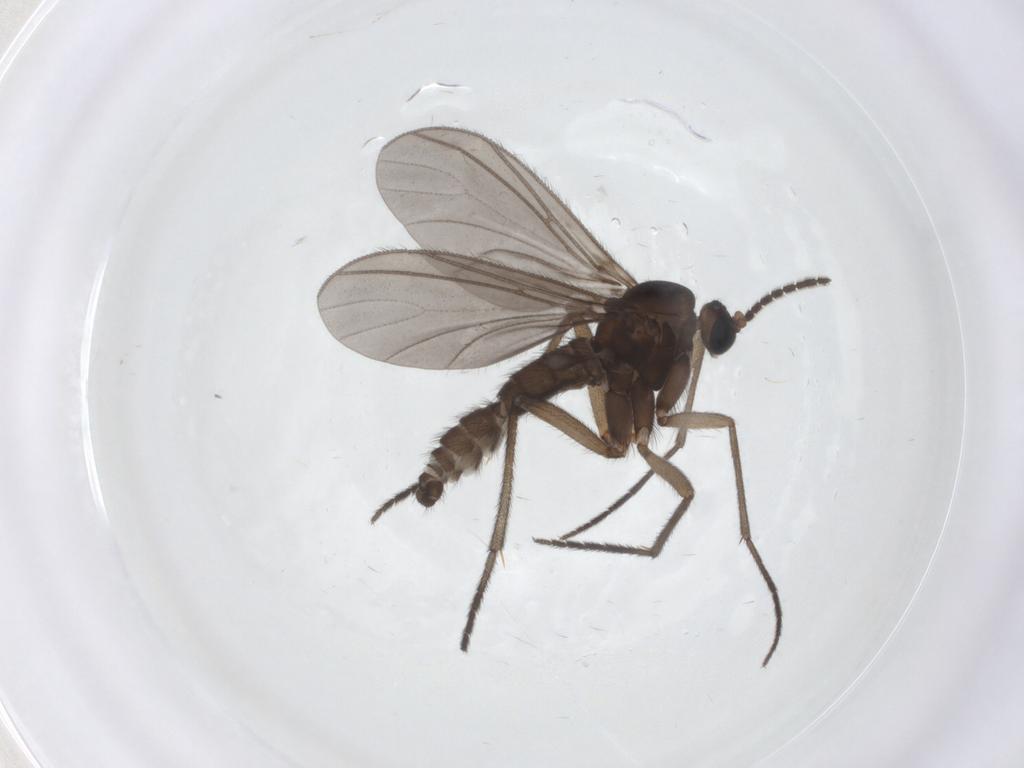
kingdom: Animalia
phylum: Arthropoda
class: Insecta
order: Diptera
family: Sciaridae
